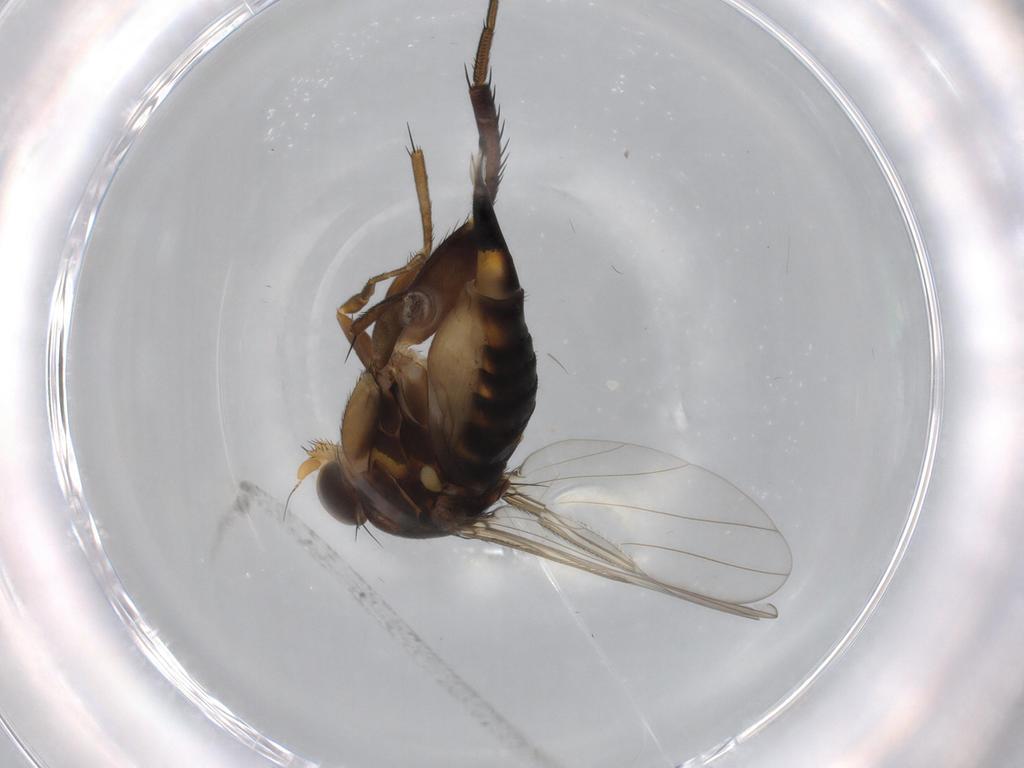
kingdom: Animalia
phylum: Arthropoda
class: Insecta
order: Diptera
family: Phoridae
